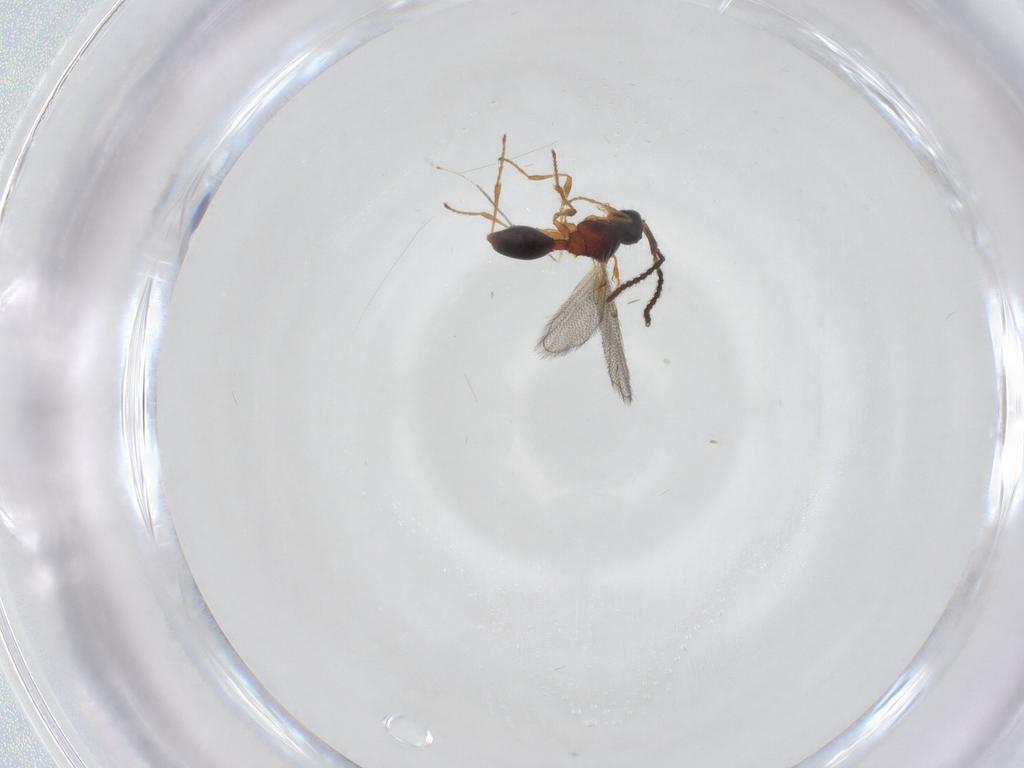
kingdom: Animalia
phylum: Arthropoda
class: Insecta
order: Hymenoptera
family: Diapriidae
